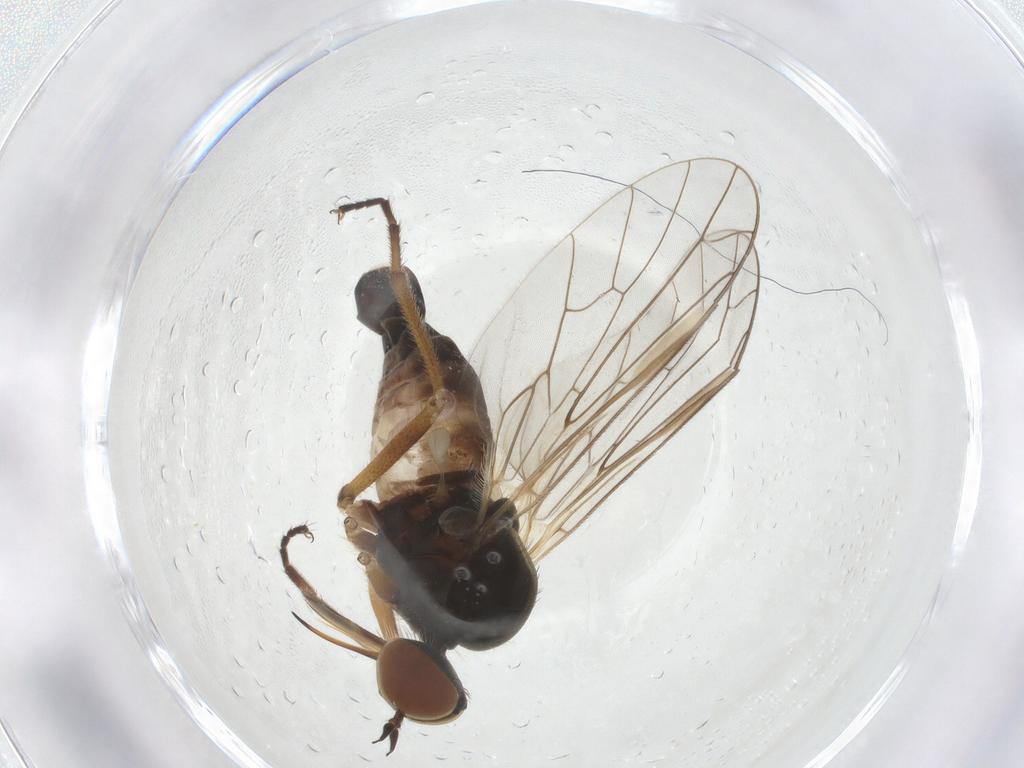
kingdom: Animalia
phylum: Arthropoda
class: Insecta
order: Diptera
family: Empididae
